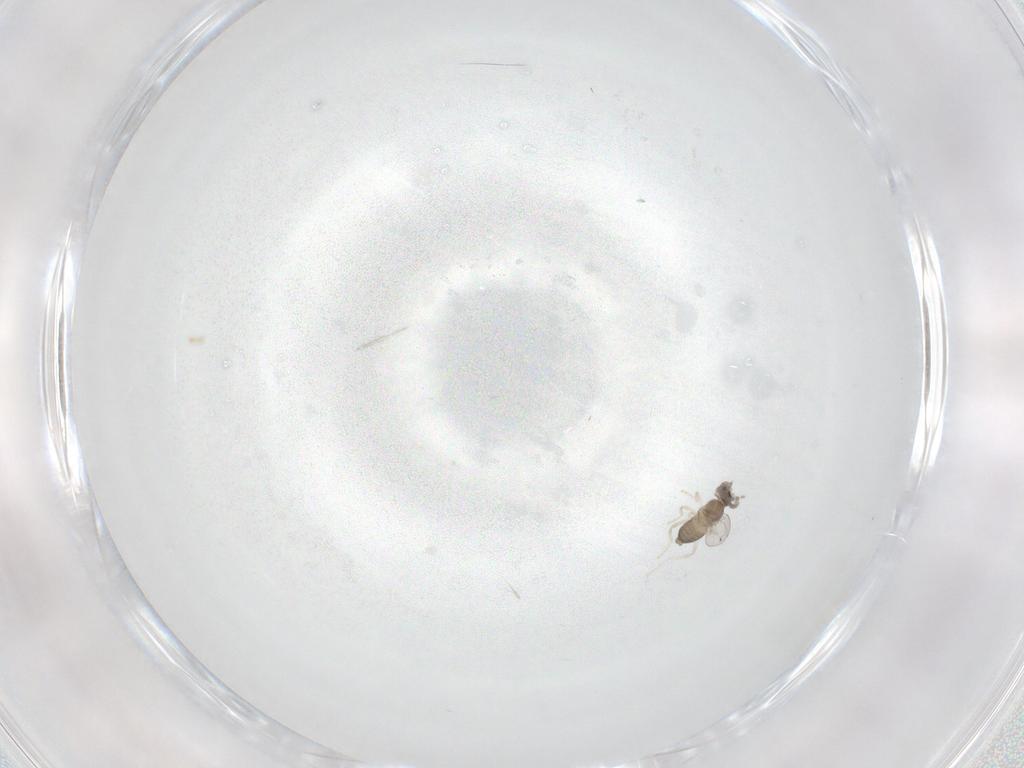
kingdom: Animalia
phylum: Arthropoda
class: Insecta
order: Diptera
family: Cecidomyiidae
